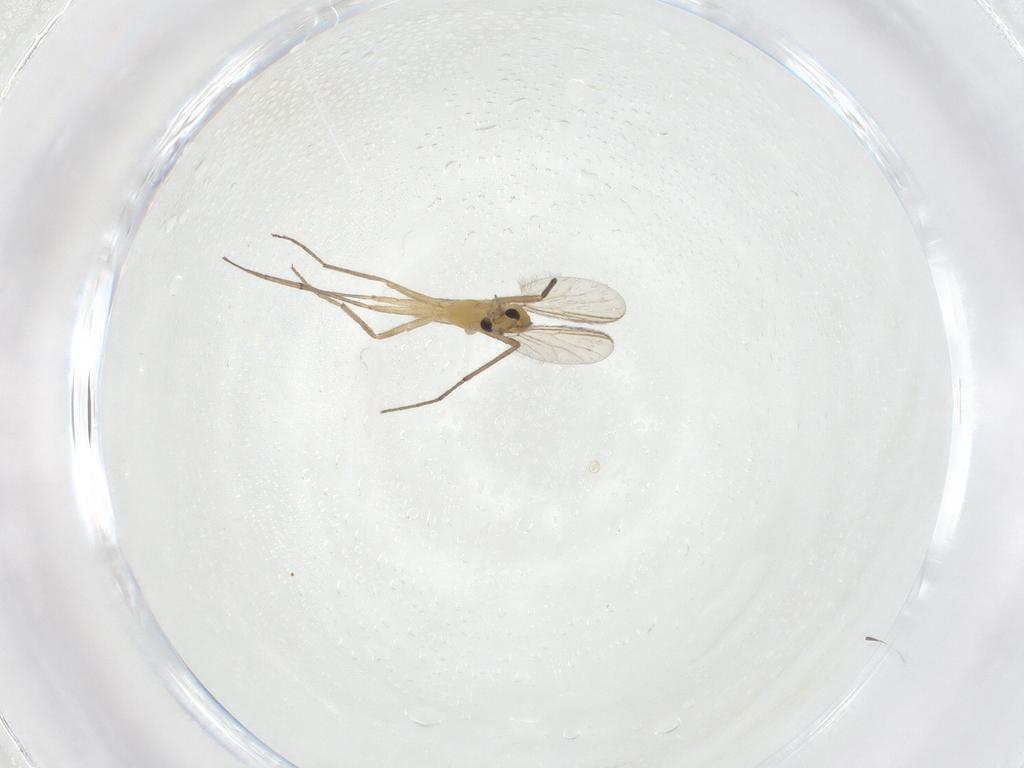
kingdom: Animalia
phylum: Arthropoda
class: Insecta
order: Diptera
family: Chironomidae
